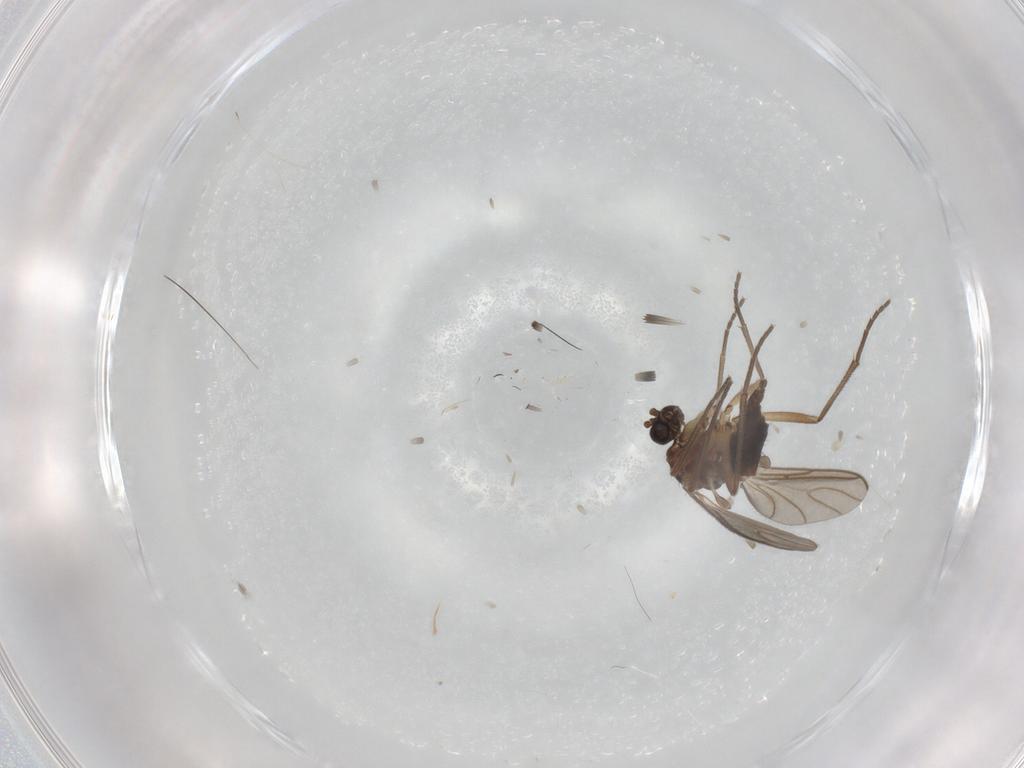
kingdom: Animalia
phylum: Arthropoda
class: Insecta
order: Diptera
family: Sciaridae
